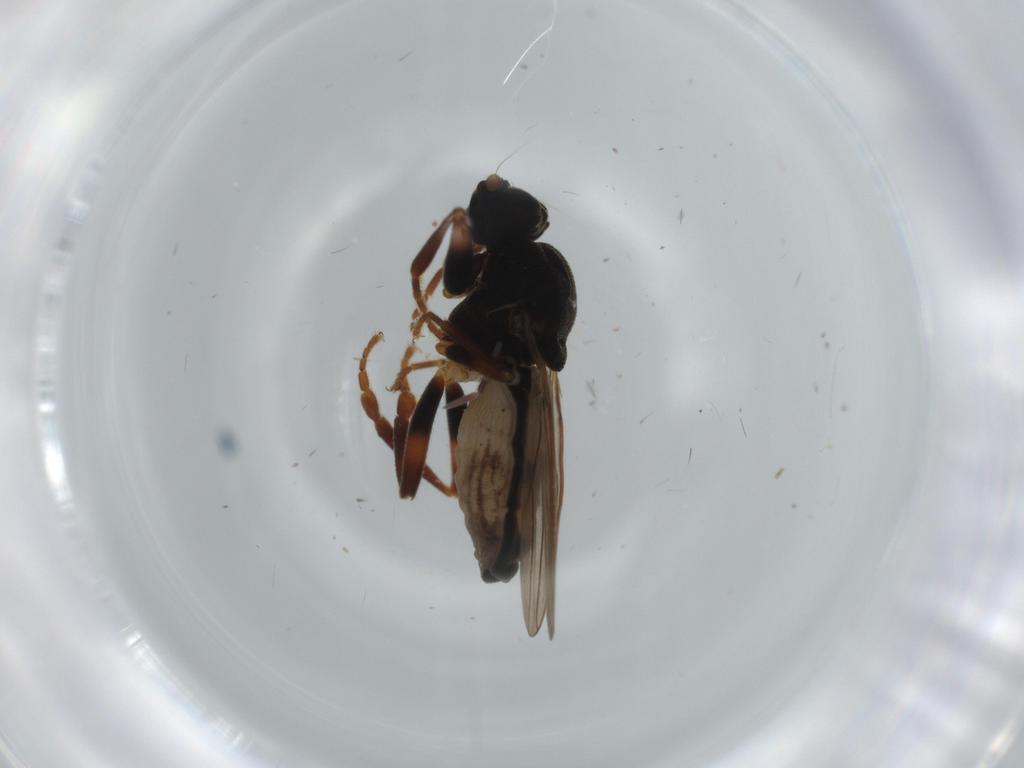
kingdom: Animalia
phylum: Arthropoda
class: Insecta
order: Diptera
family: Sphaeroceridae
